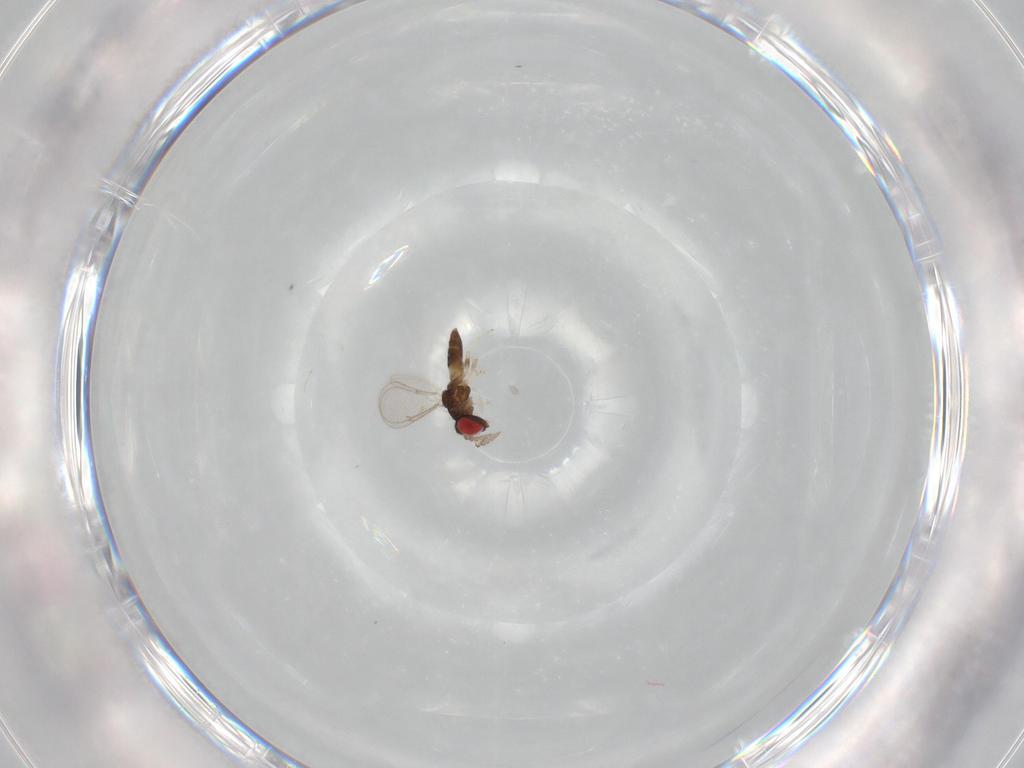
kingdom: Animalia
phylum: Arthropoda
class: Insecta
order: Hymenoptera
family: Eulophidae
